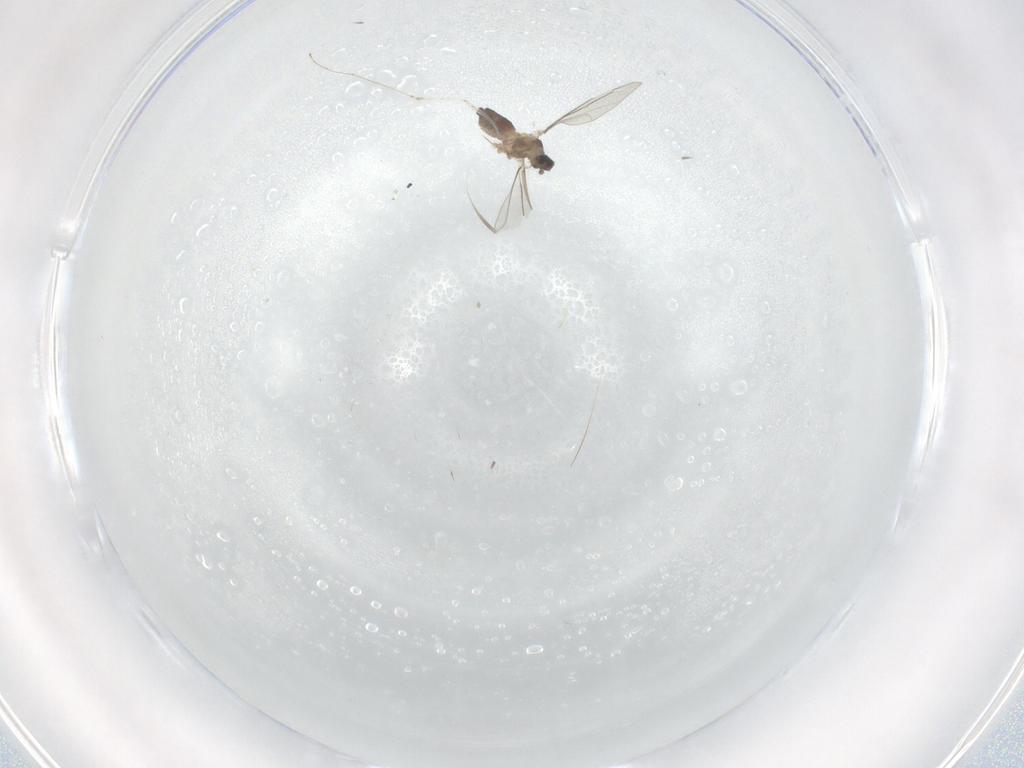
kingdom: Animalia
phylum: Arthropoda
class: Insecta
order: Diptera
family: Cecidomyiidae
